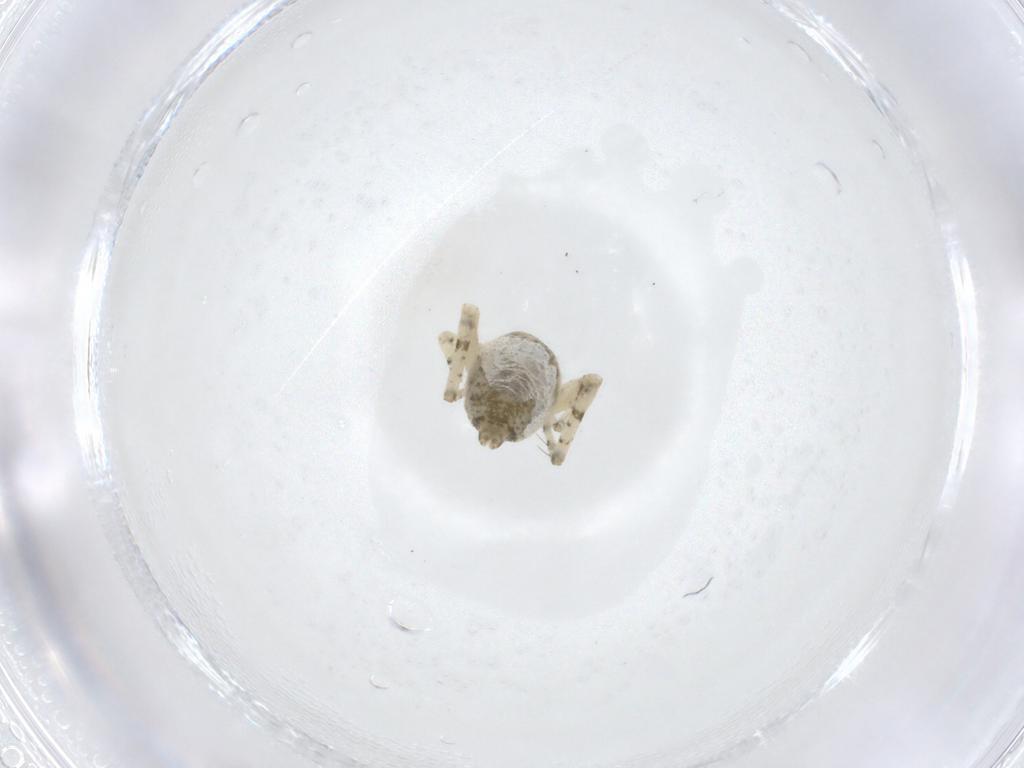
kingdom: Animalia
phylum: Arthropoda
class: Arachnida
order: Araneae
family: Anyphaenidae
